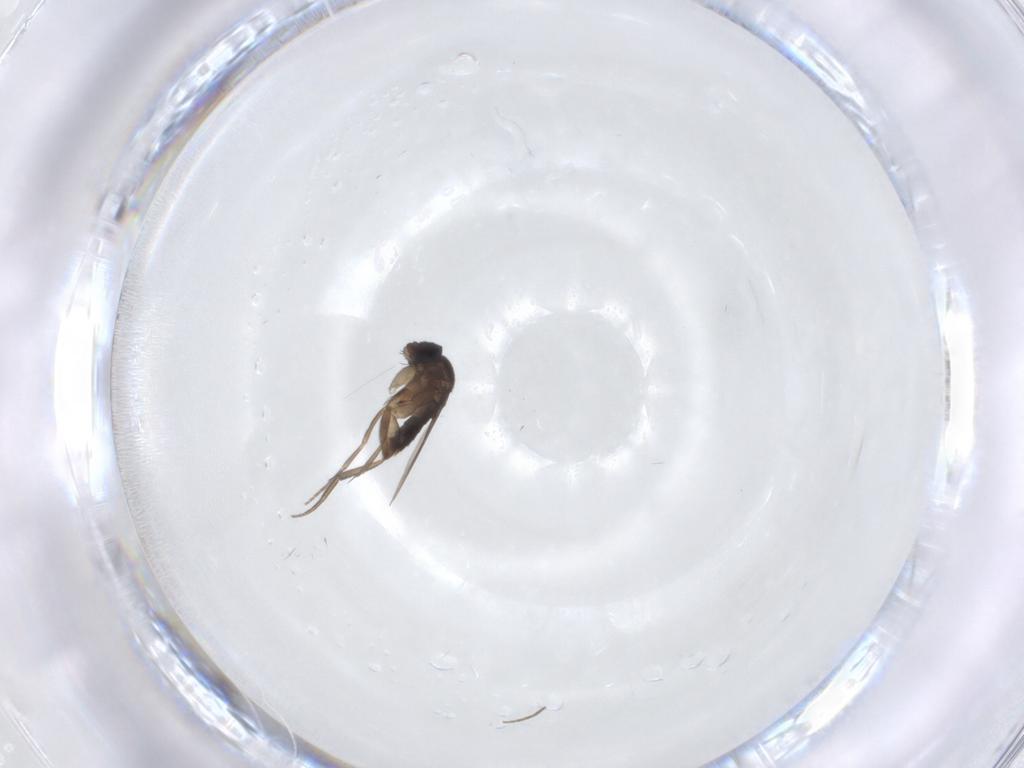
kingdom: Animalia
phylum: Arthropoda
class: Insecta
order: Diptera
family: Phoridae
